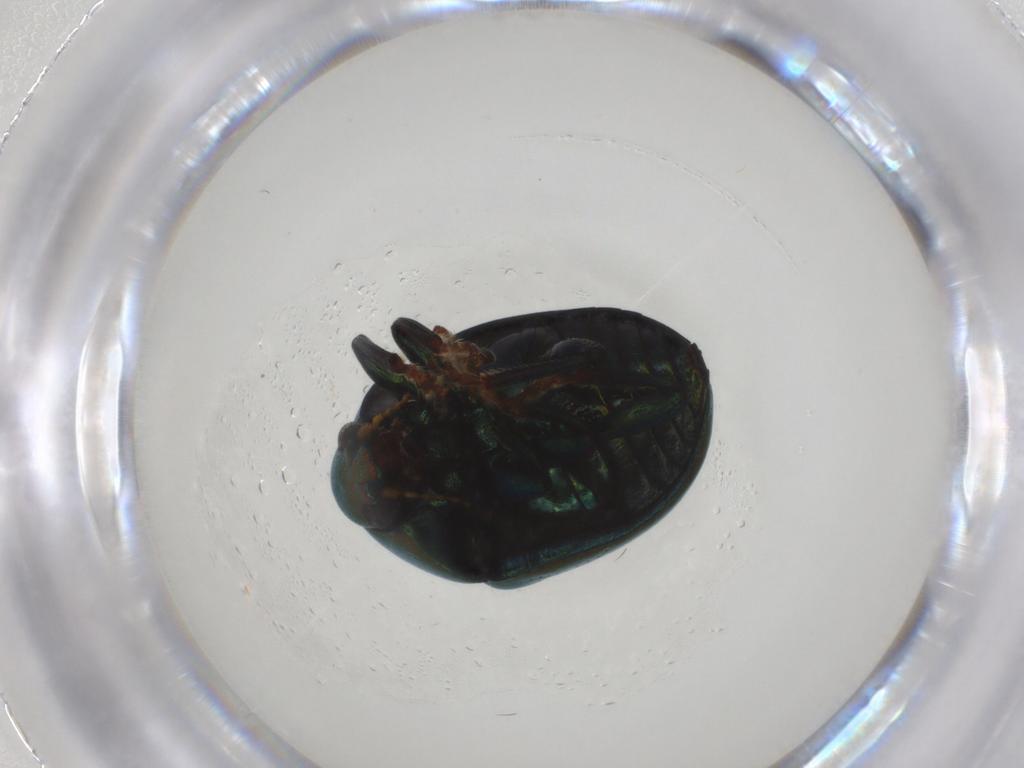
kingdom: Animalia
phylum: Arthropoda
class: Insecta
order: Coleoptera
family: Chrysomelidae
